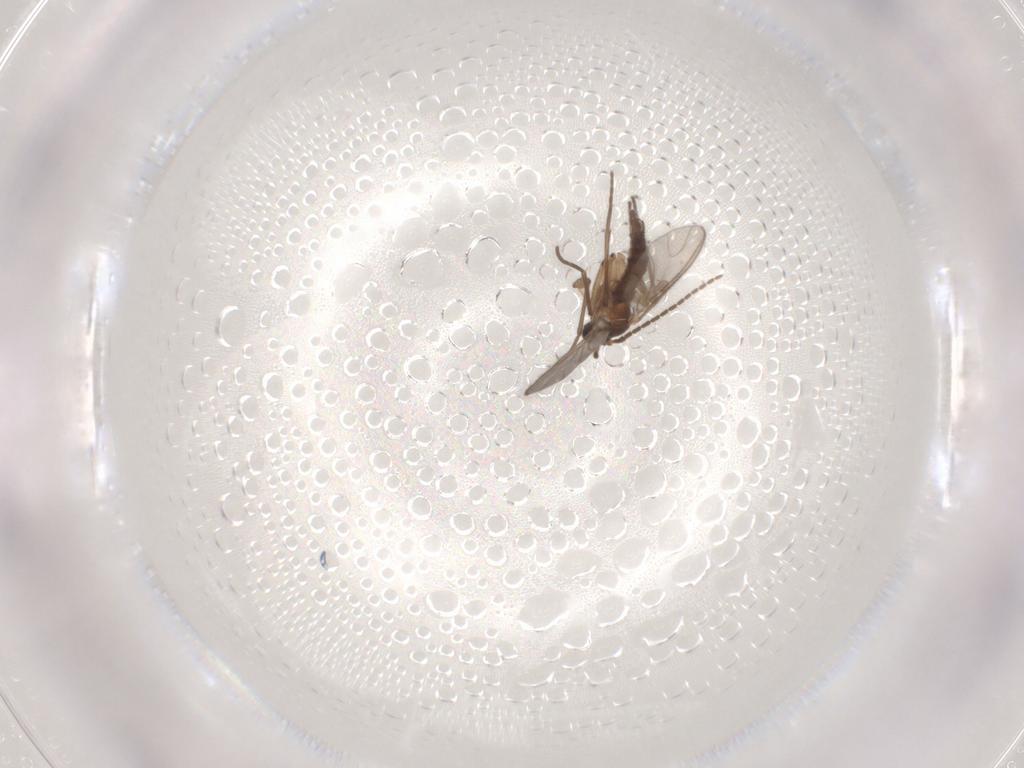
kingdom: Animalia
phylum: Arthropoda
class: Insecta
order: Diptera
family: Sciaridae
